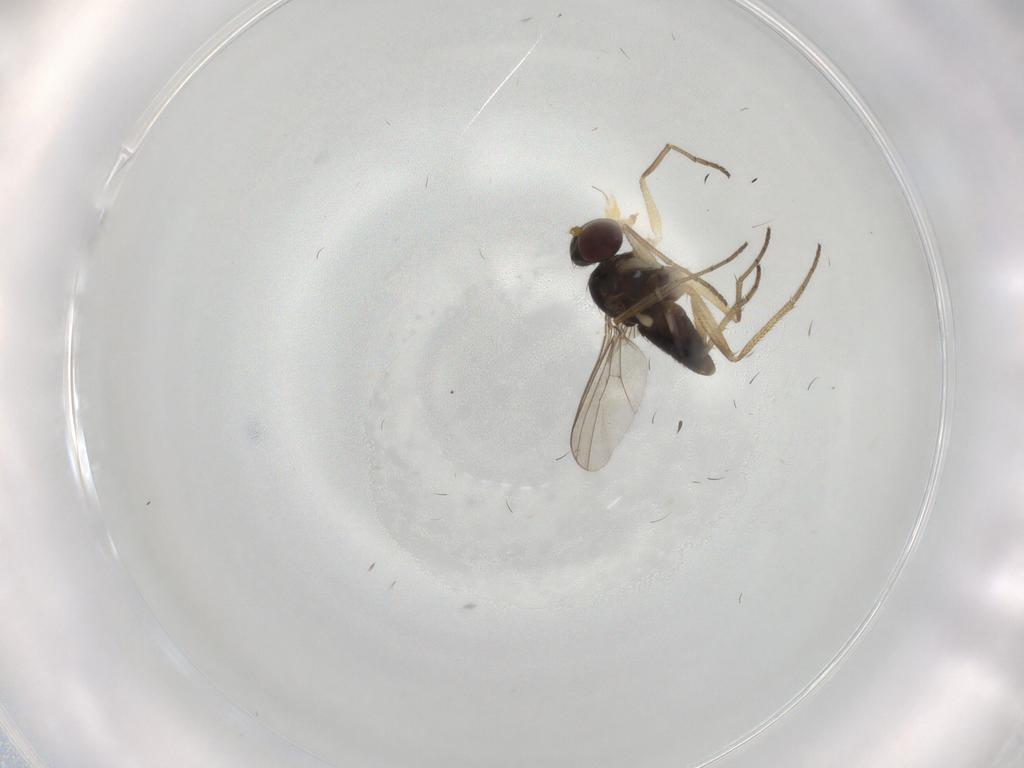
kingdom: Animalia
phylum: Arthropoda
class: Insecta
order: Diptera
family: Dolichopodidae
